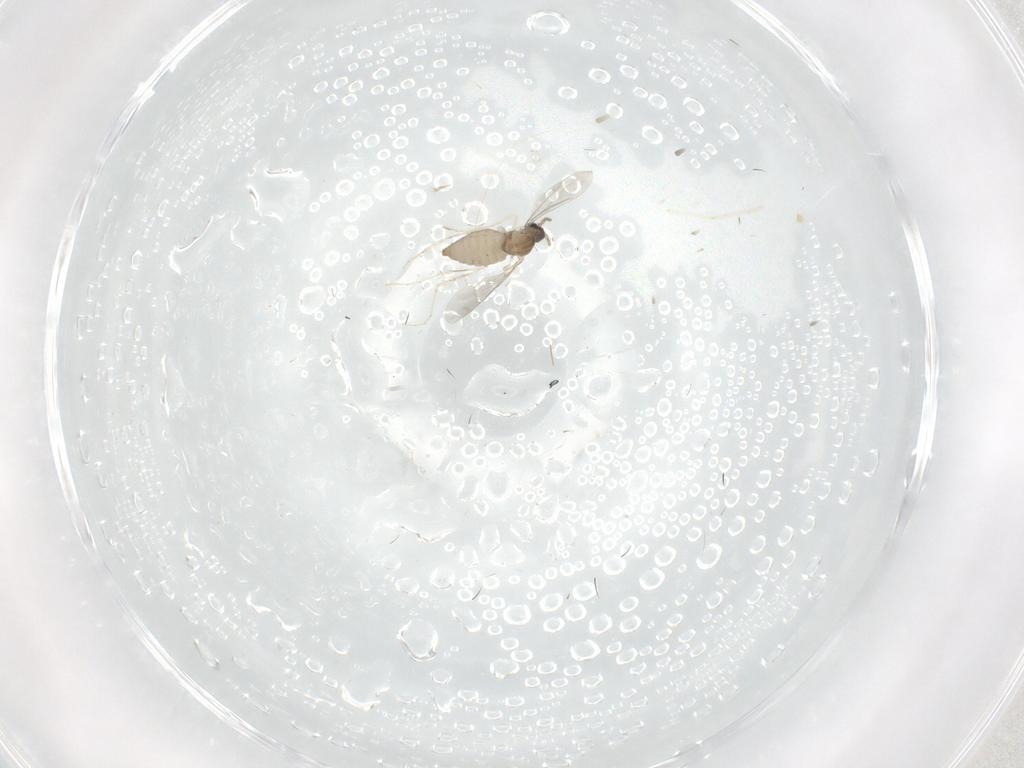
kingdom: Animalia
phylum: Arthropoda
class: Insecta
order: Diptera
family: Cecidomyiidae
